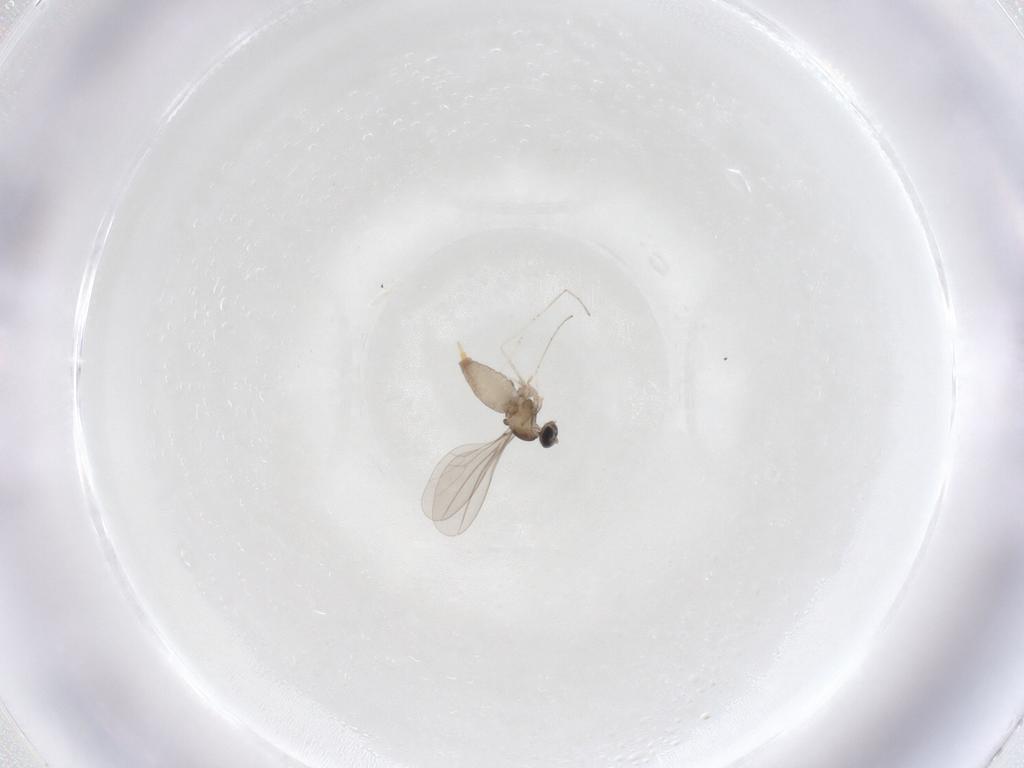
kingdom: Animalia
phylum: Arthropoda
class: Insecta
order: Diptera
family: Cecidomyiidae
